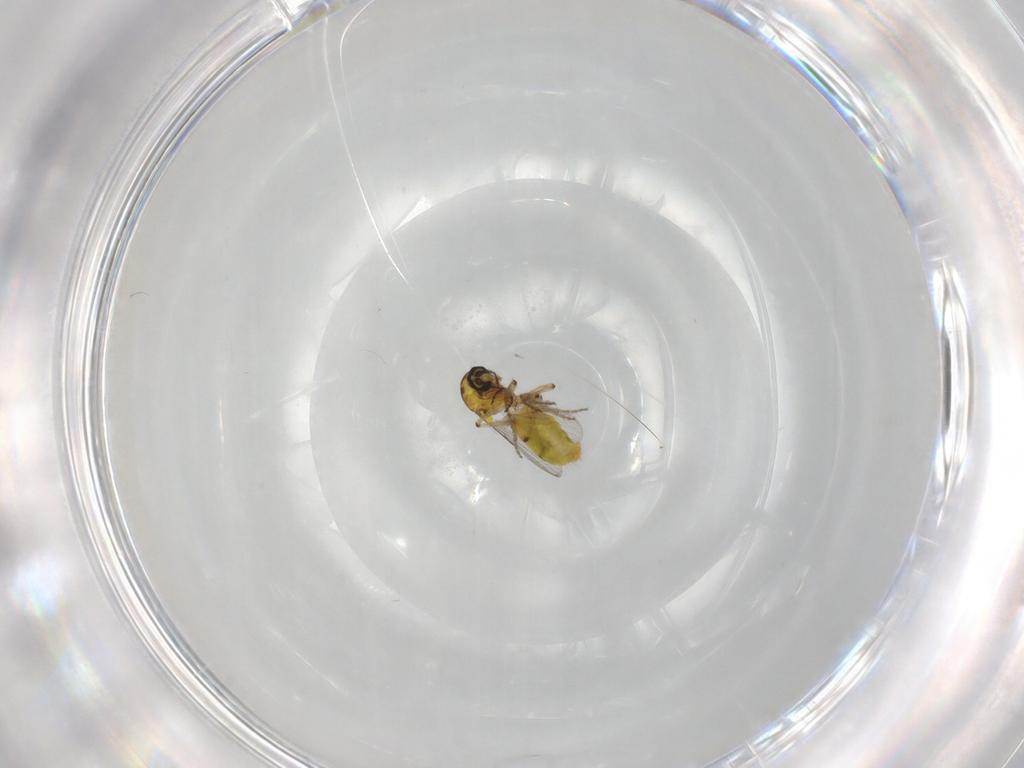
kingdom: Animalia
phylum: Arthropoda
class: Insecta
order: Diptera
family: Ceratopogonidae
